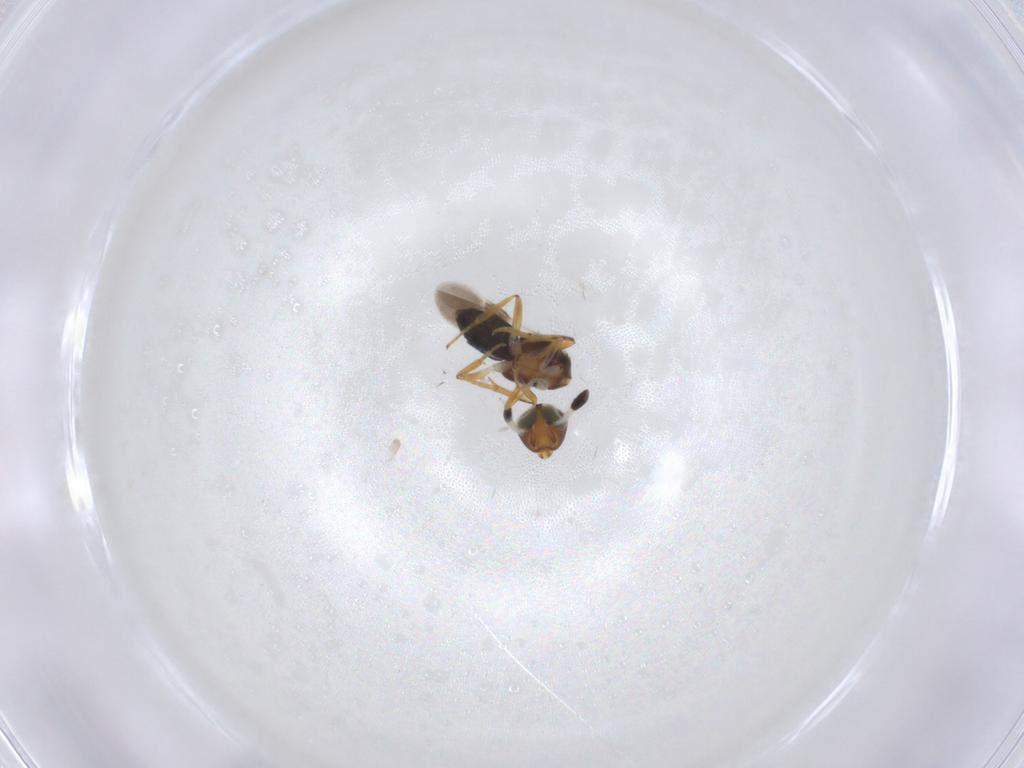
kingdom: Animalia
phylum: Arthropoda
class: Insecta
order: Hymenoptera
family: Scelionidae
